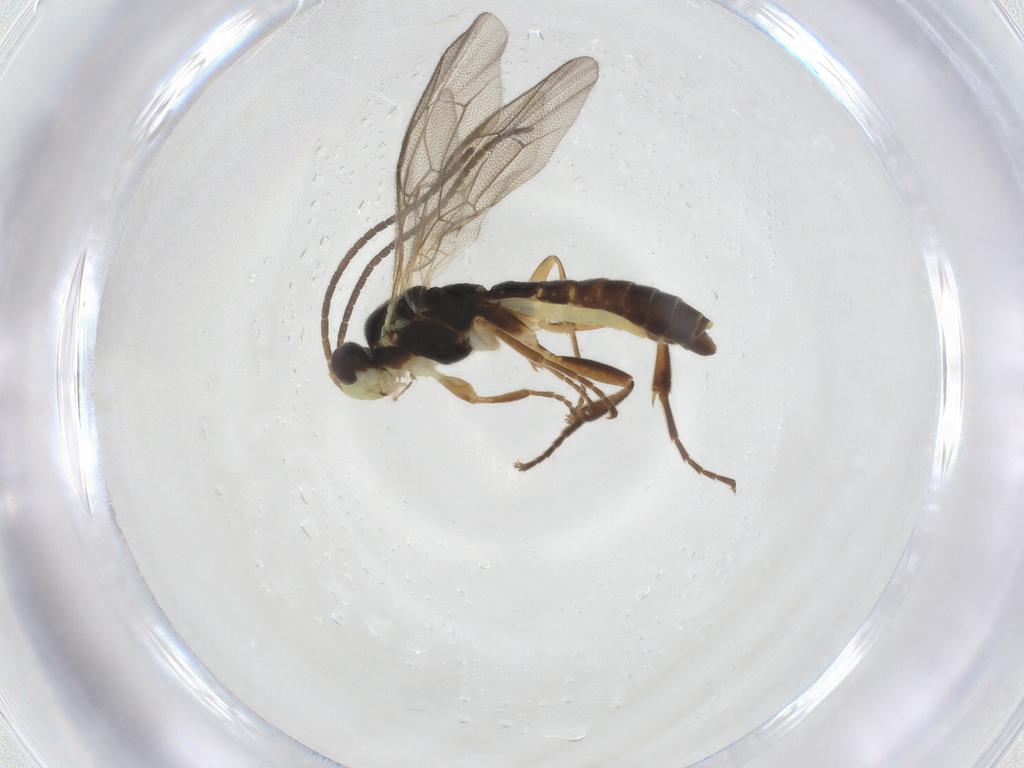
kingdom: Animalia
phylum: Arthropoda
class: Insecta
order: Hymenoptera
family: Ichneumonidae
